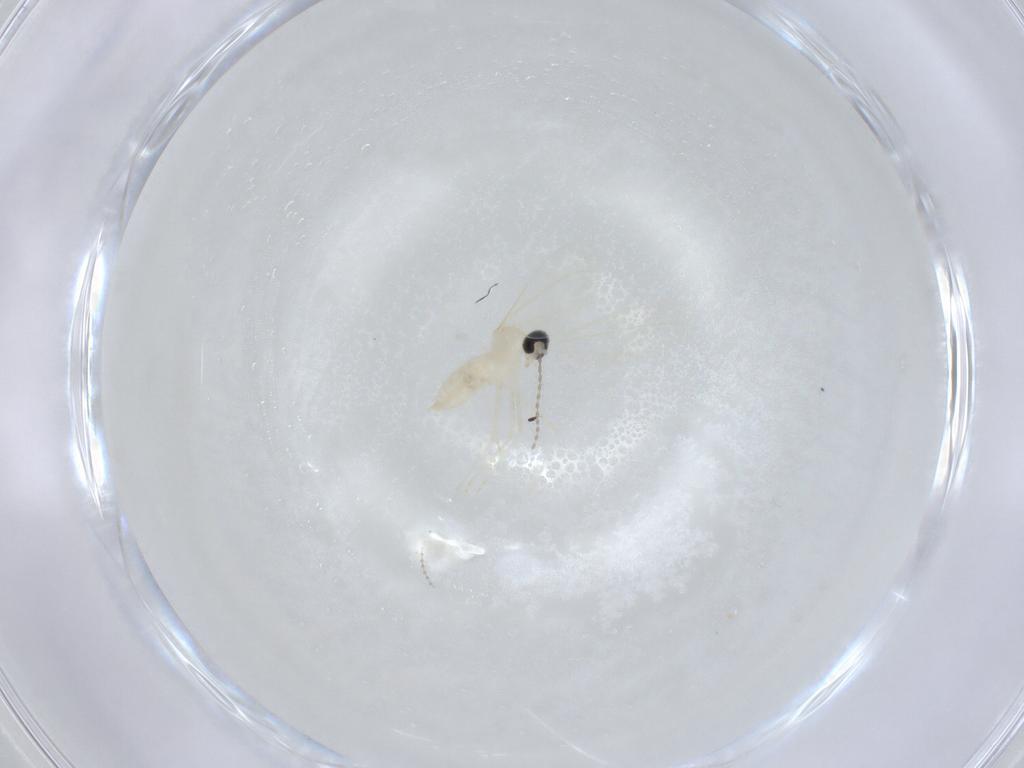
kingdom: Animalia
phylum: Arthropoda
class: Insecta
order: Diptera
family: Cecidomyiidae
